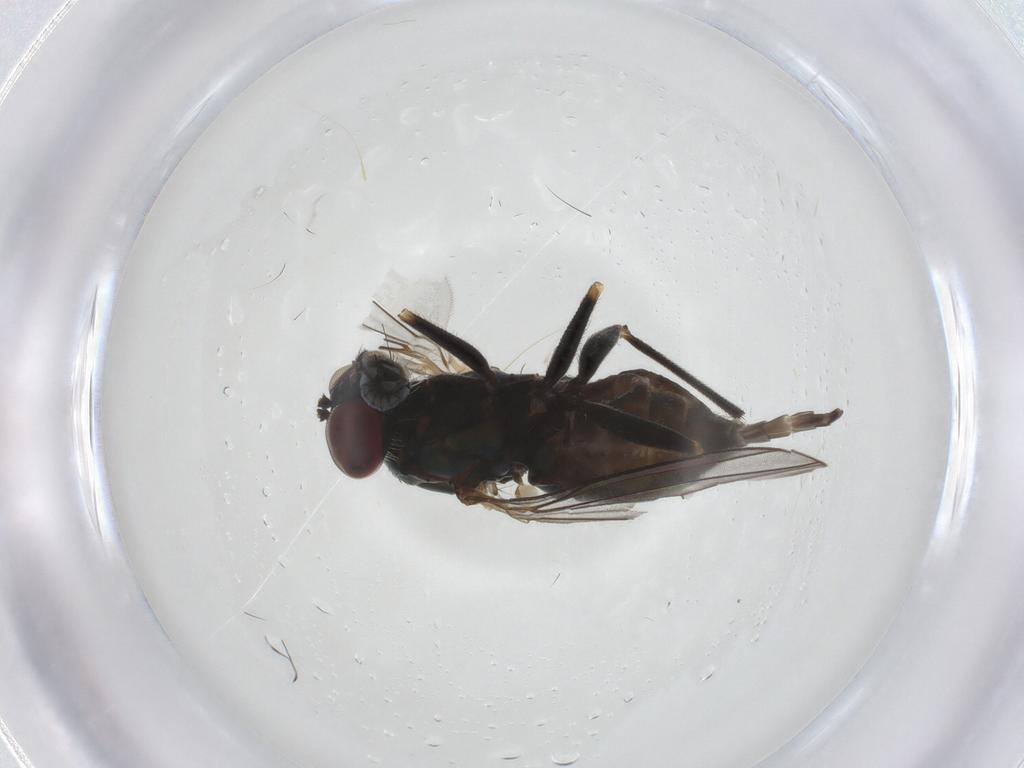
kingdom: Animalia
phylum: Arthropoda
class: Insecta
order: Diptera
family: Dolichopodidae
